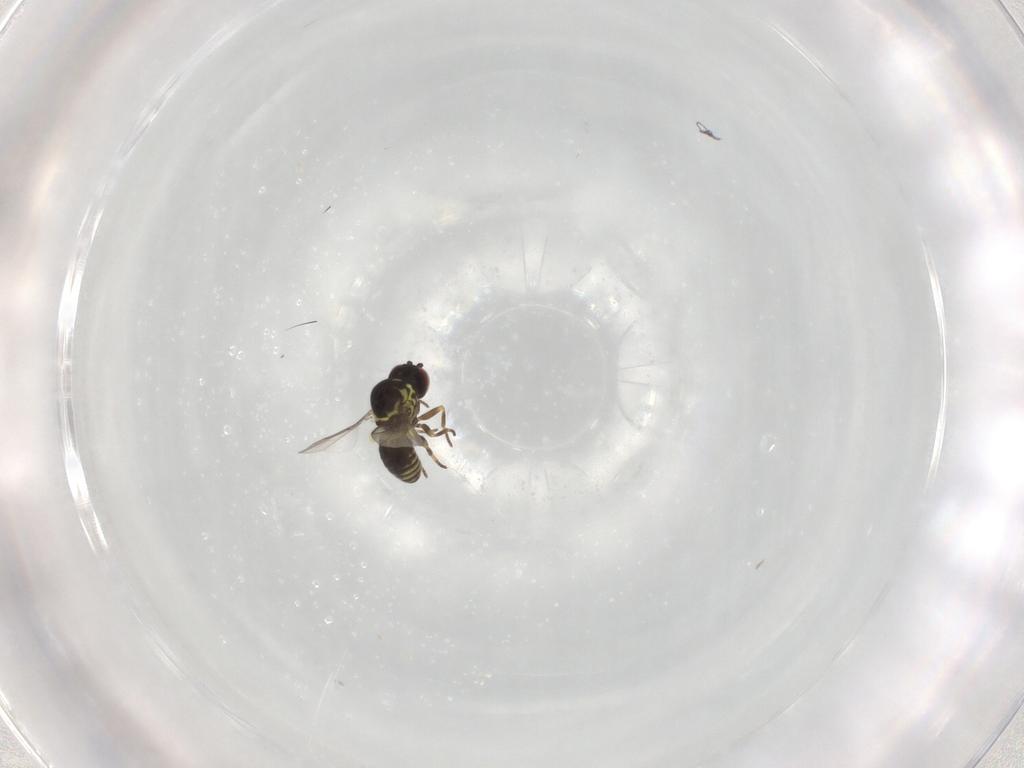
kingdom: Animalia
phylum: Arthropoda
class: Insecta
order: Diptera
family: Mythicomyiidae
